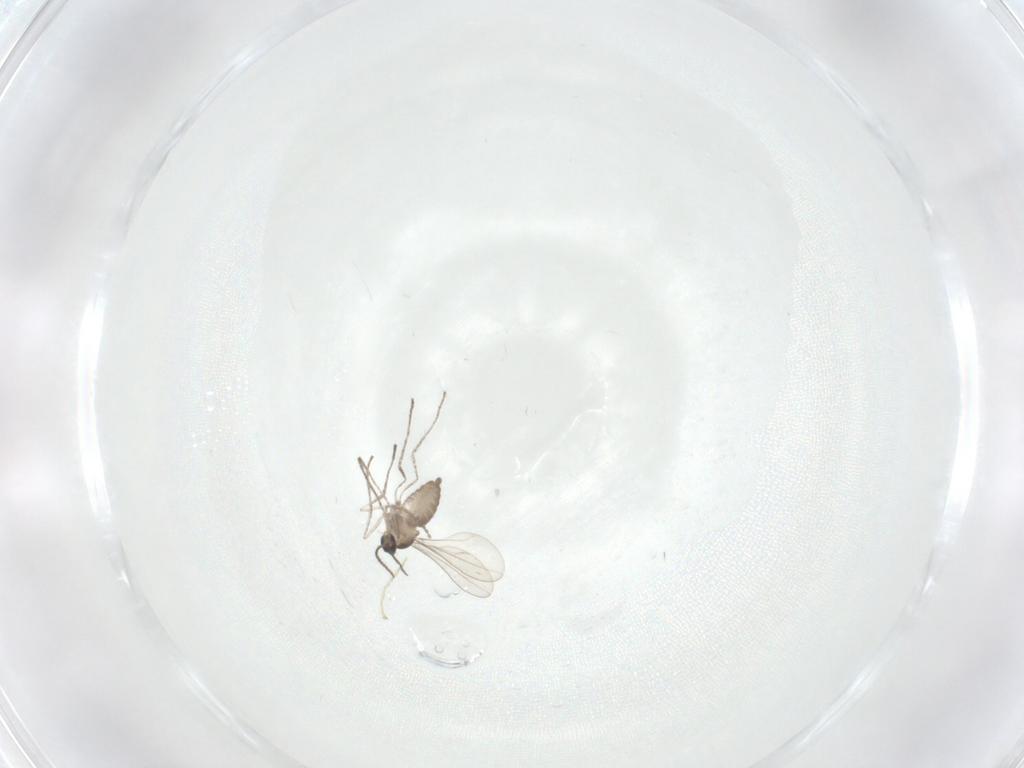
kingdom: Animalia
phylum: Arthropoda
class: Insecta
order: Diptera
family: Cecidomyiidae
